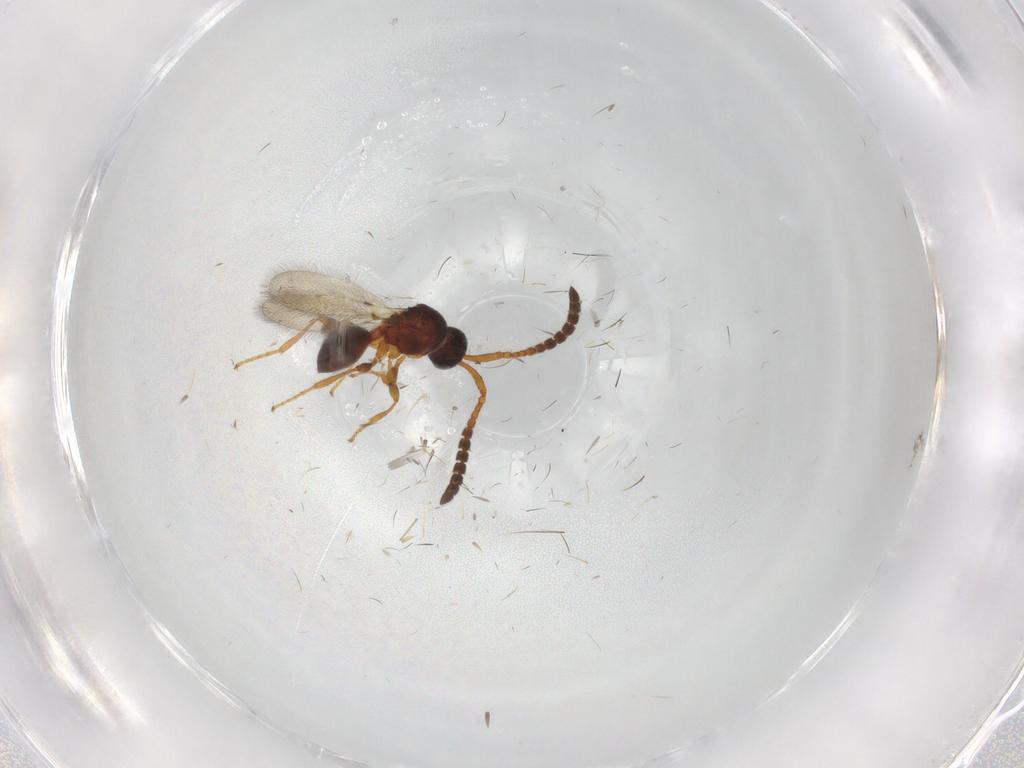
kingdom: Animalia
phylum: Arthropoda
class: Insecta
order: Hymenoptera
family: Diapriidae
